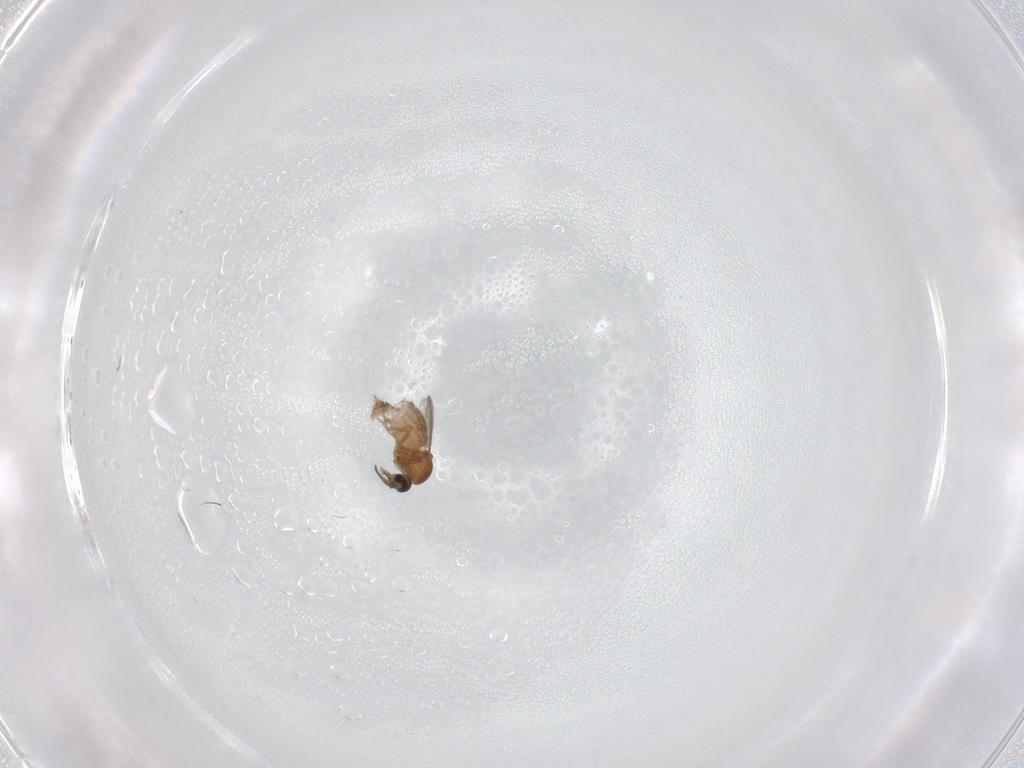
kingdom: Animalia
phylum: Arthropoda
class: Insecta
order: Diptera
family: Ceratopogonidae
